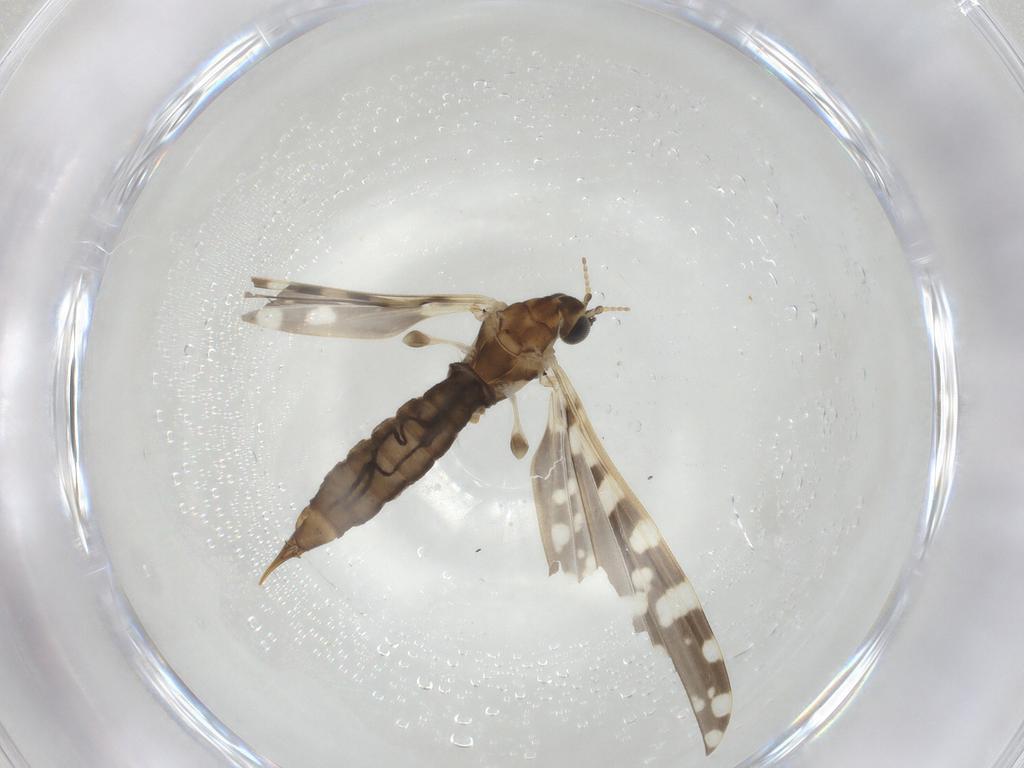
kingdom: Animalia
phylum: Arthropoda
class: Insecta
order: Diptera
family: Limoniidae
